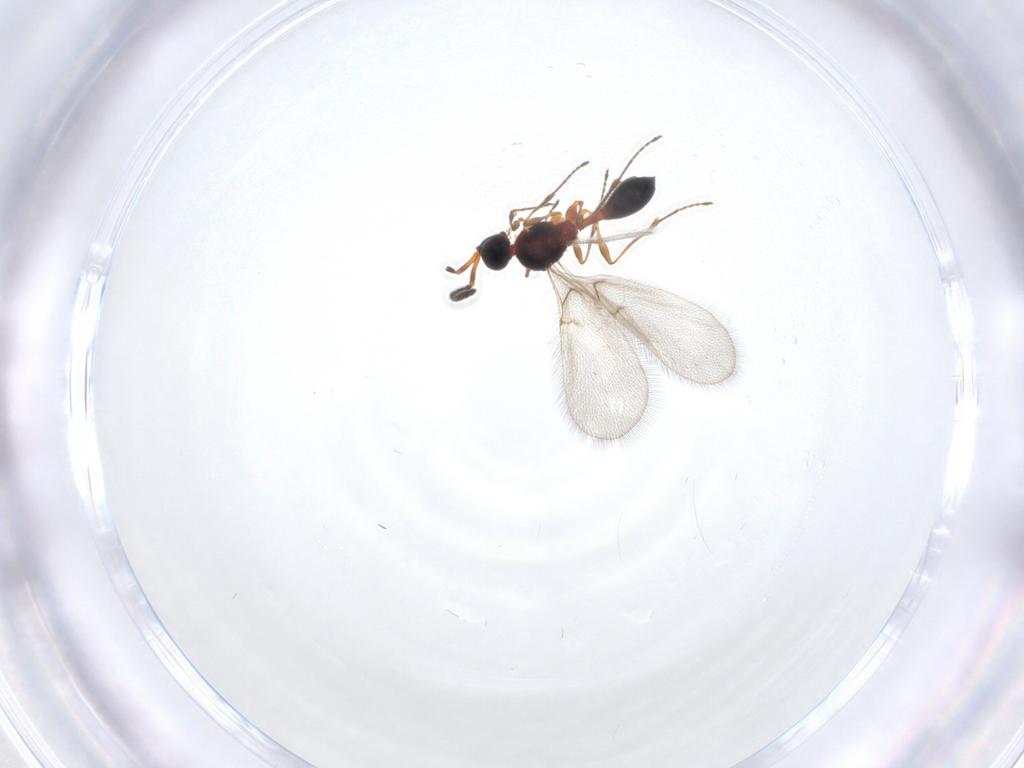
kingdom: Animalia
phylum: Arthropoda
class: Insecta
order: Hymenoptera
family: Diapriidae
